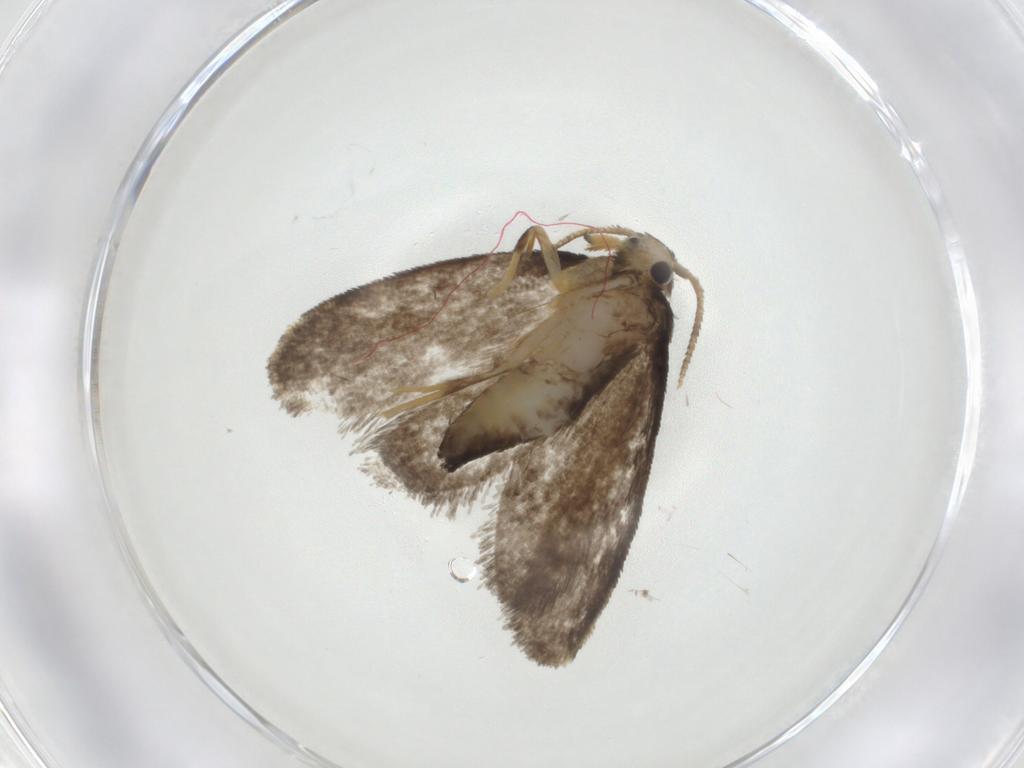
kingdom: Animalia
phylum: Arthropoda
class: Insecta
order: Lepidoptera
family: Psychidae
